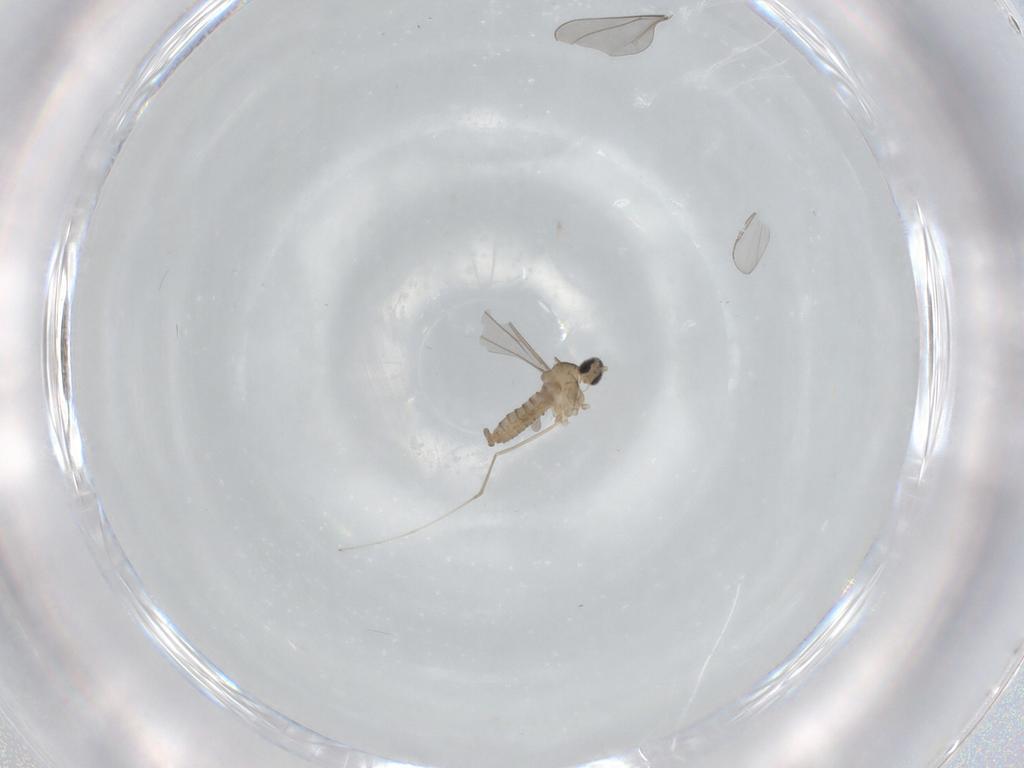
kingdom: Animalia
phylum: Arthropoda
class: Insecta
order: Diptera
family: Cecidomyiidae
